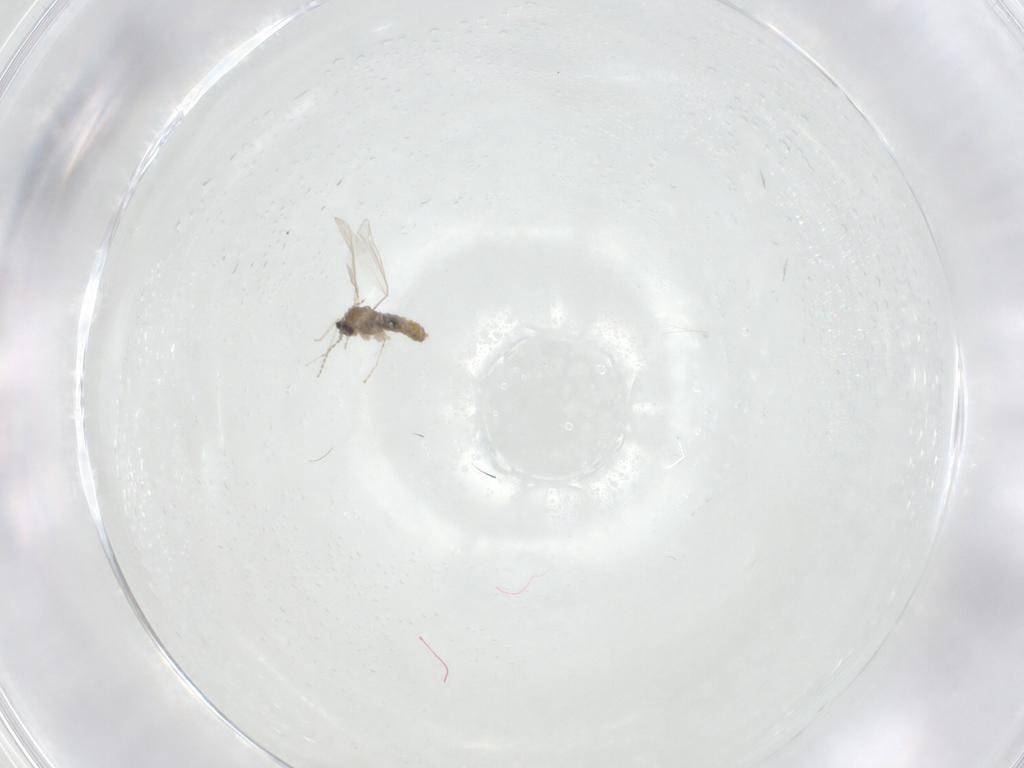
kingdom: Animalia
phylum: Arthropoda
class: Insecta
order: Diptera
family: Cecidomyiidae
